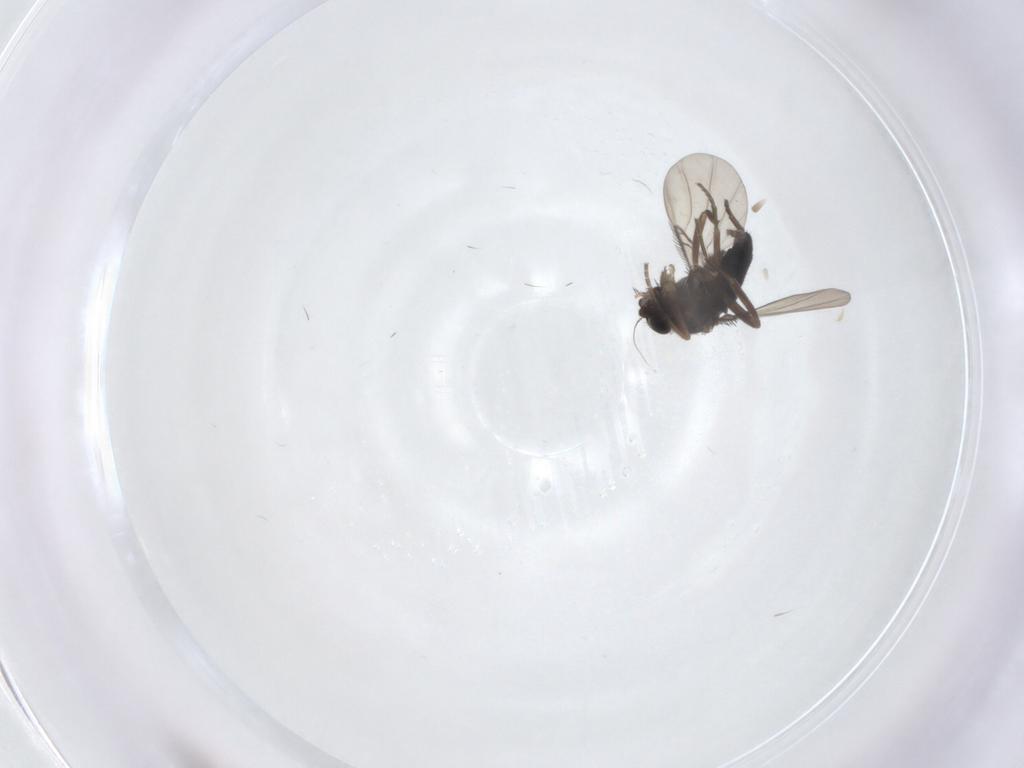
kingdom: Animalia
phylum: Arthropoda
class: Insecta
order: Diptera
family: Phoridae
